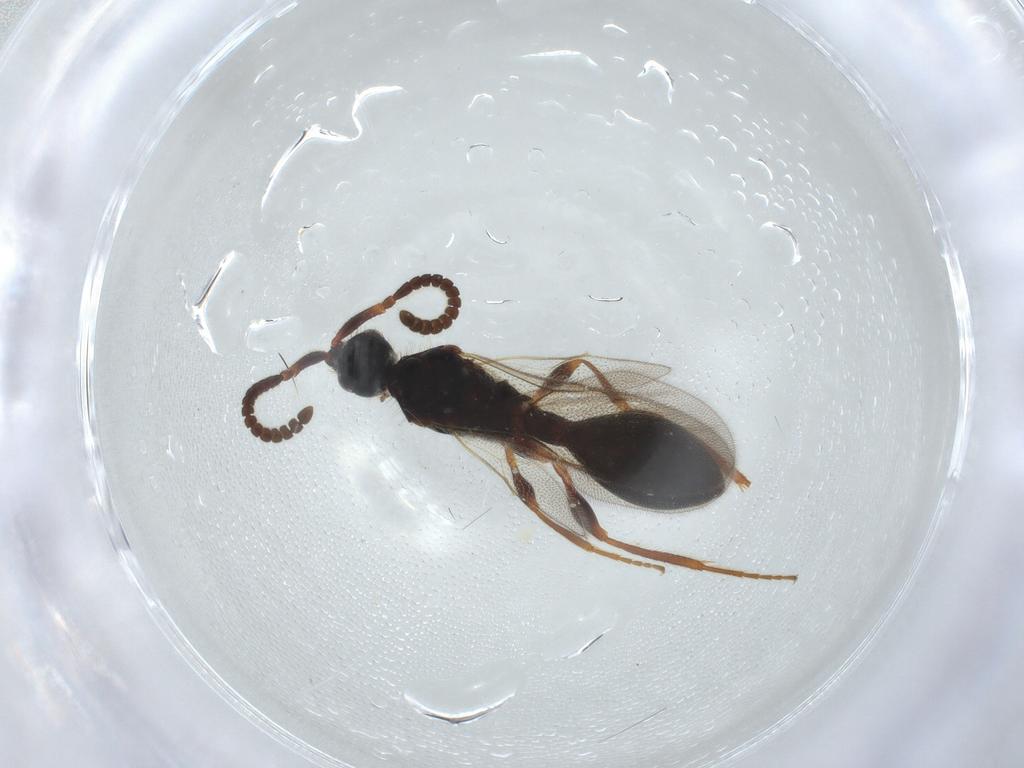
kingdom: Animalia
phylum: Arthropoda
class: Insecta
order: Hymenoptera
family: Diapriidae
